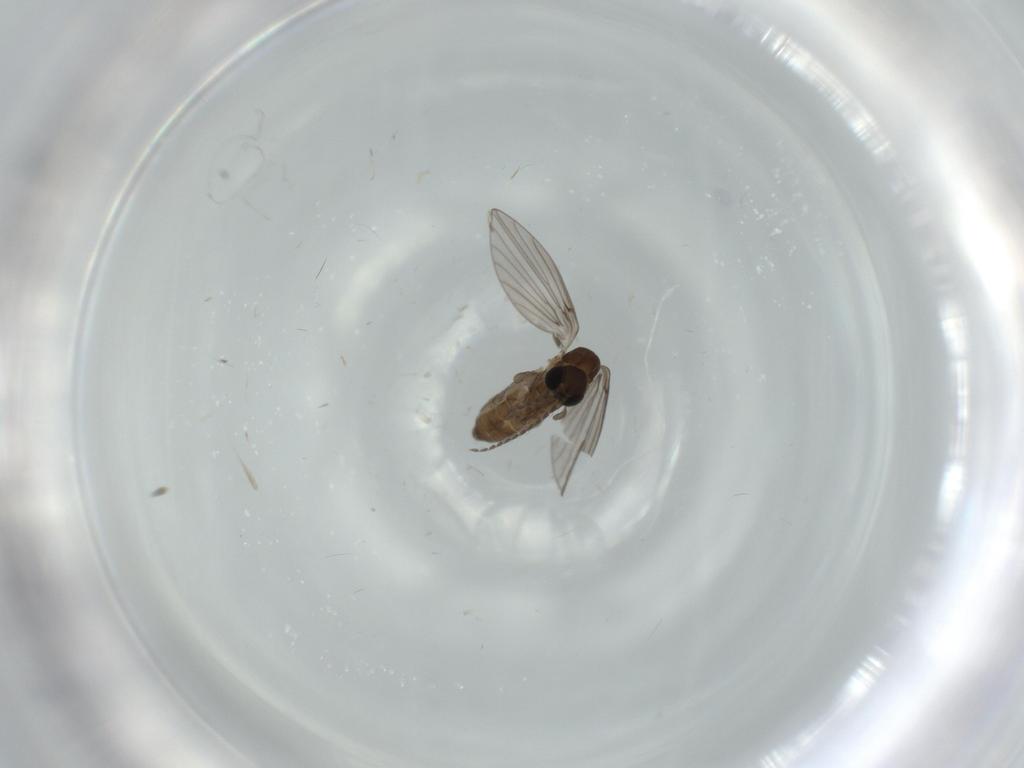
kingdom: Animalia
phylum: Arthropoda
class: Insecta
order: Diptera
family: Psychodidae
